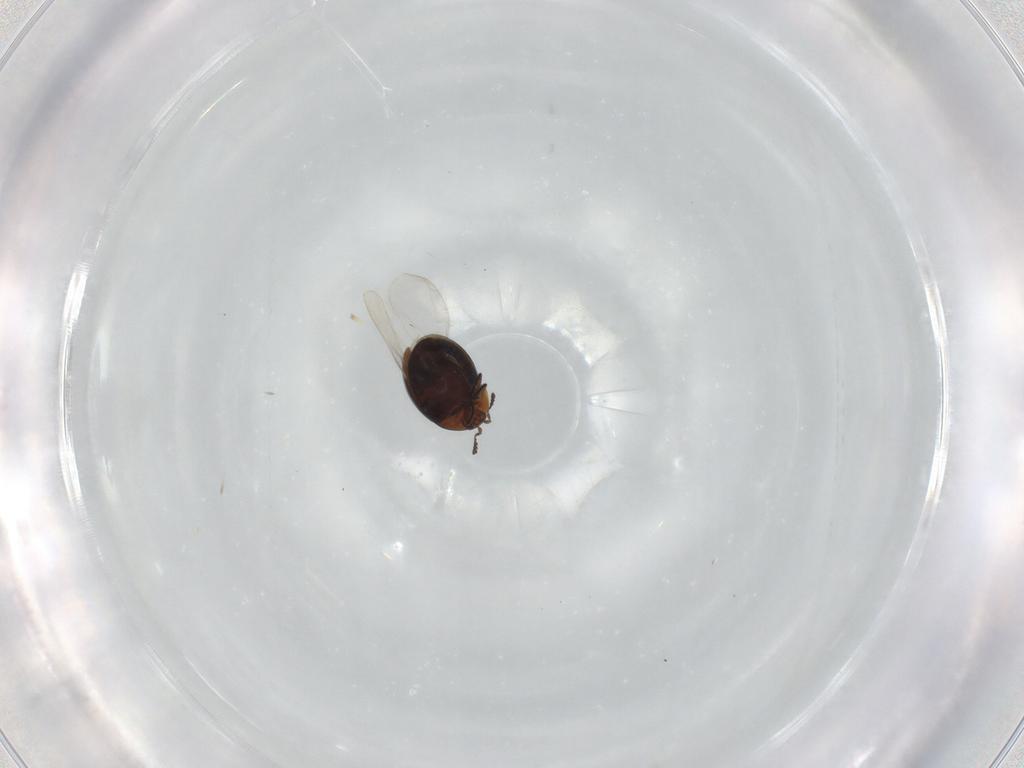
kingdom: Animalia
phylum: Arthropoda
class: Insecta
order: Coleoptera
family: Corylophidae
